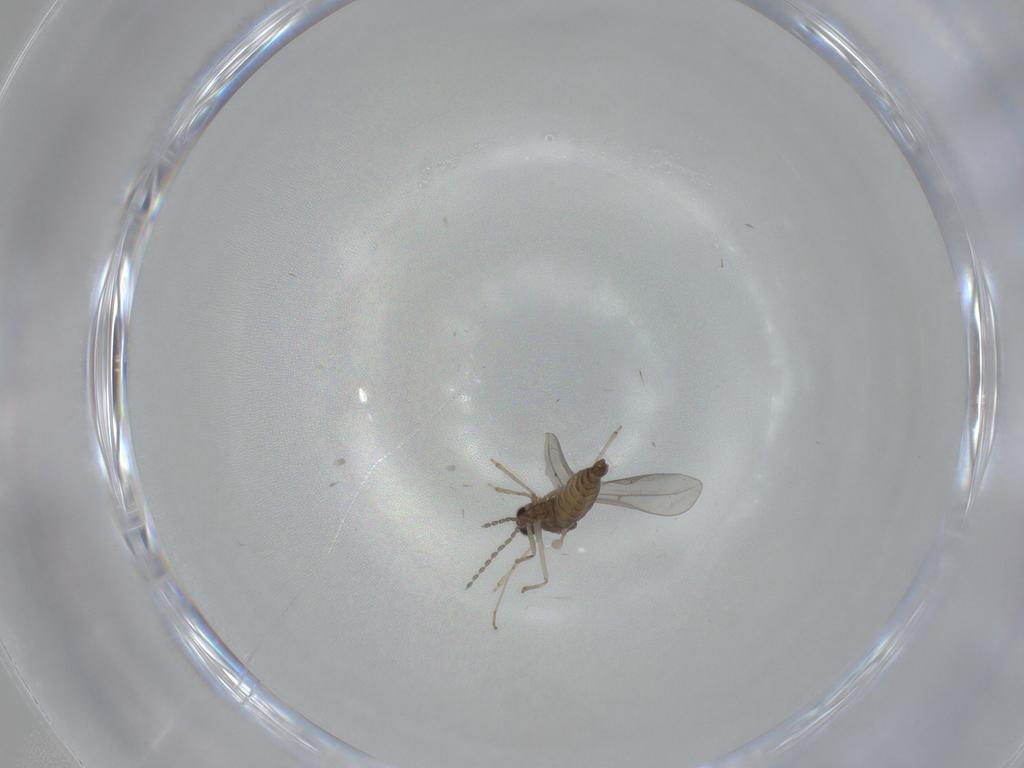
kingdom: Animalia
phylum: Arthropoda
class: Insecta
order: Diptera
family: Cecidomyiidae
